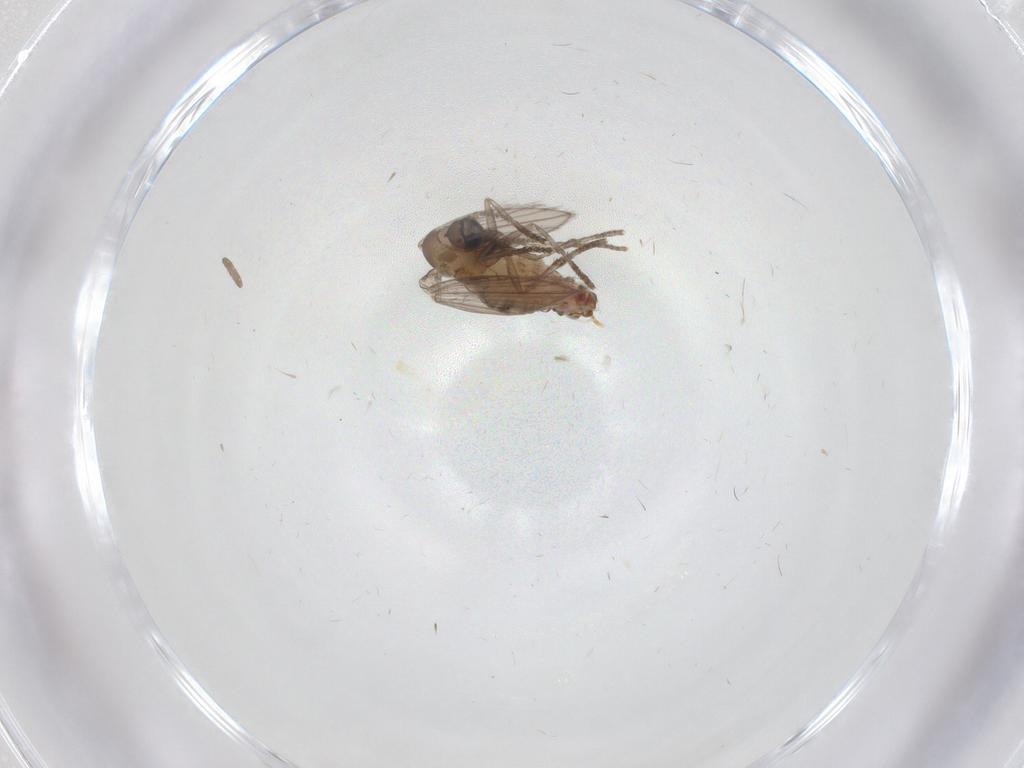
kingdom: Animalia
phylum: Arthropoda
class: Insecta
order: Diptera
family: Psychodidae
